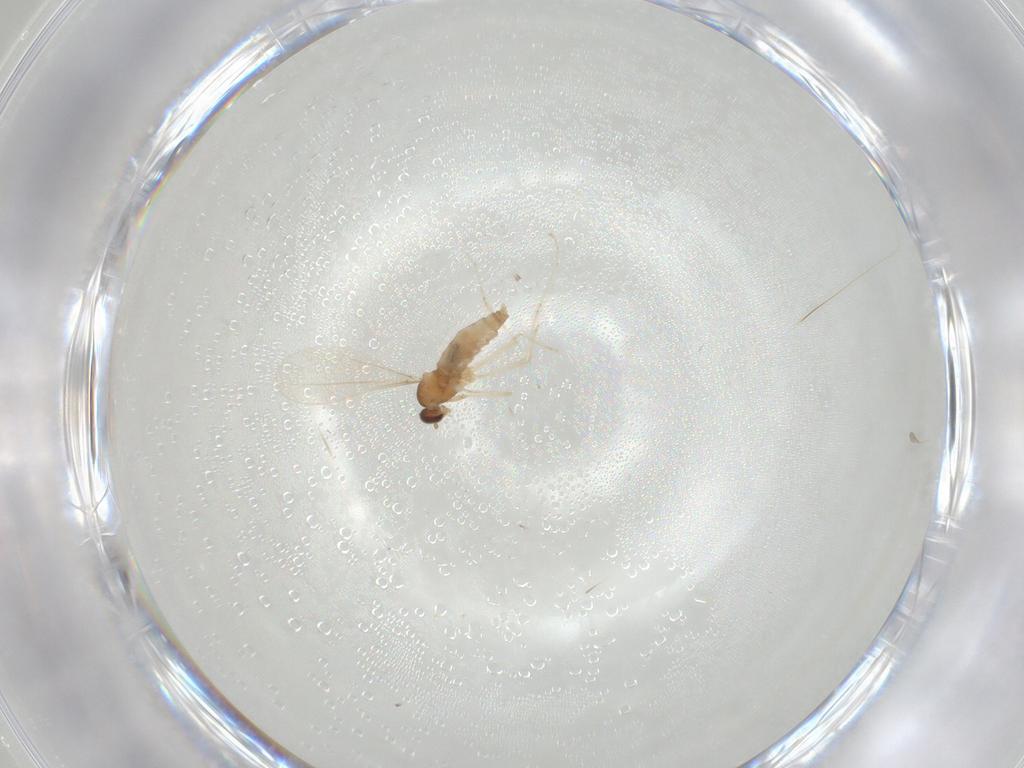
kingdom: Animalia
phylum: Arthropoda
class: Insecta
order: Diptera
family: Cecidomyiidae
